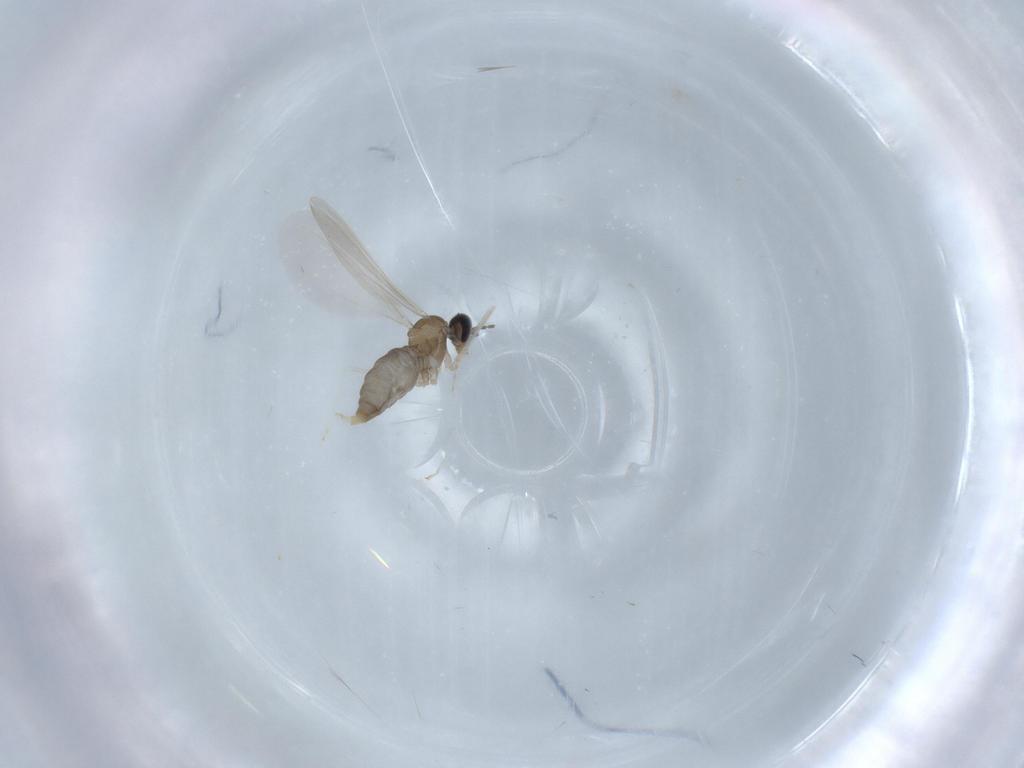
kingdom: Animalia
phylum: Arthropoda
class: Insecta
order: Diptera
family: Cecidomyiidae
